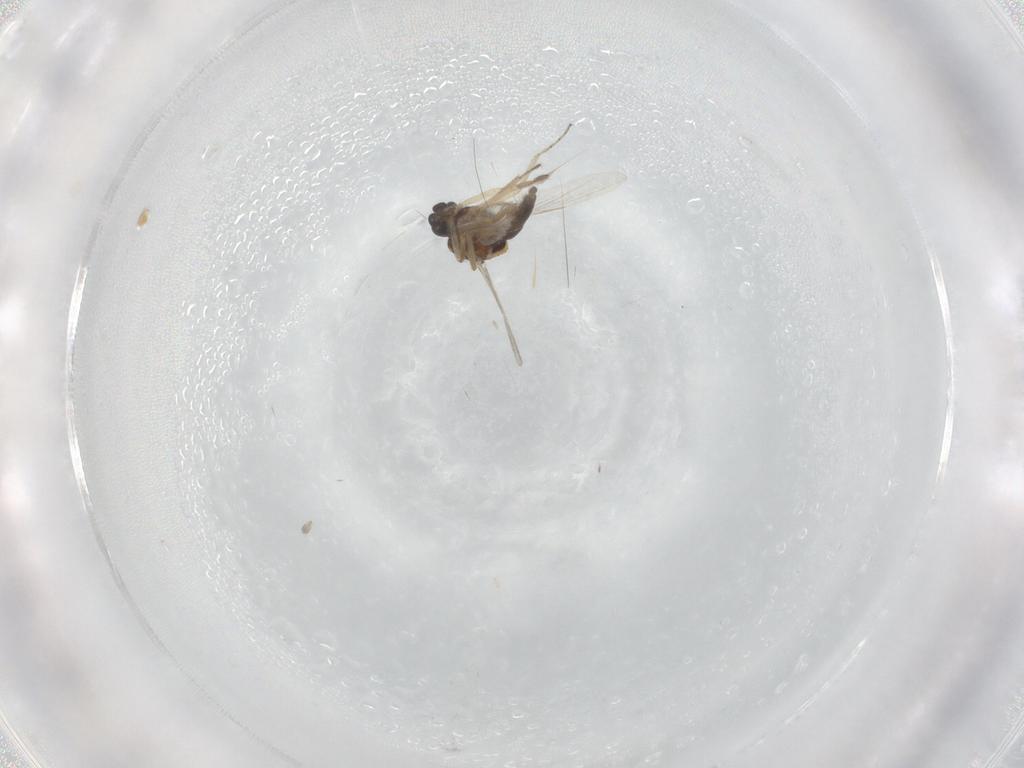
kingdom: Animalia
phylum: Arthropoda
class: Insecta
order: Diptera
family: Ceratopogonidae
